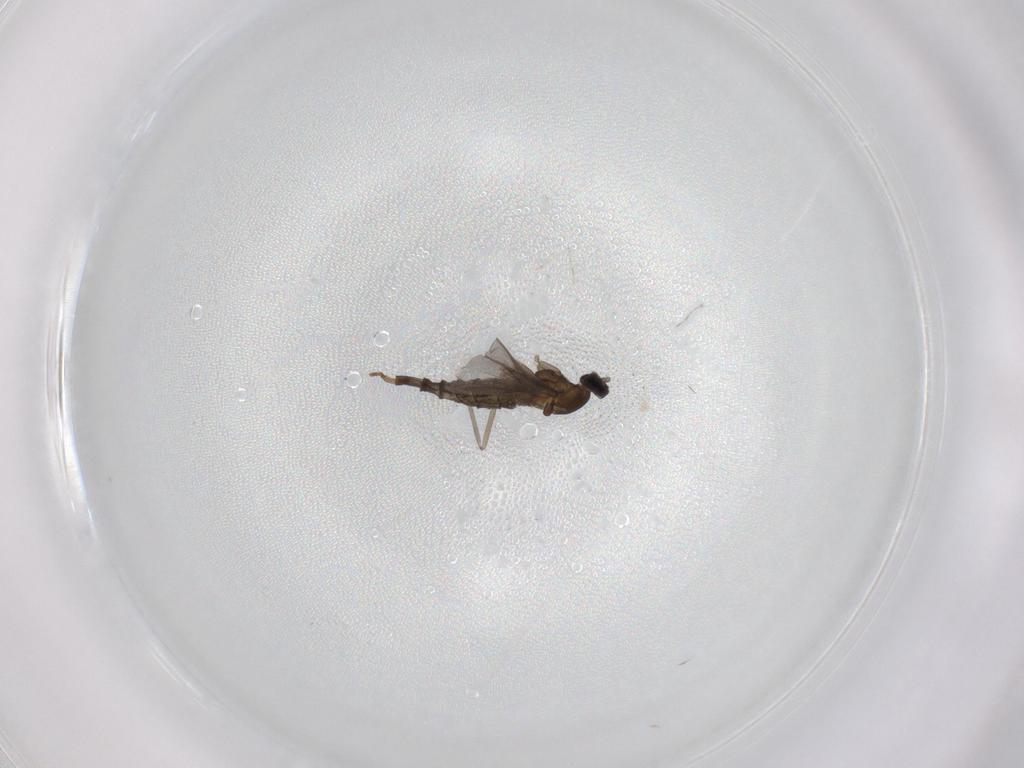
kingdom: Animalia
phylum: Arthropoda
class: Insecta
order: Diptera
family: Cecidomyiidae
